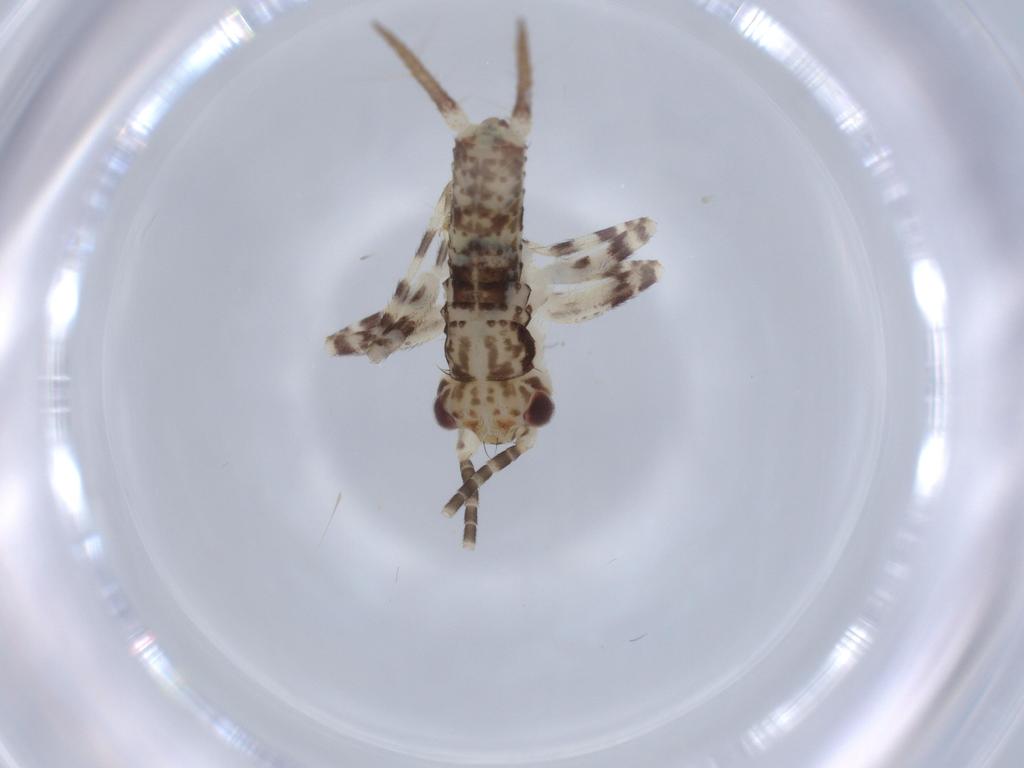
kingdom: Animalia
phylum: Arthropoda
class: Insecta
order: Orthoptera
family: Gryllidae
